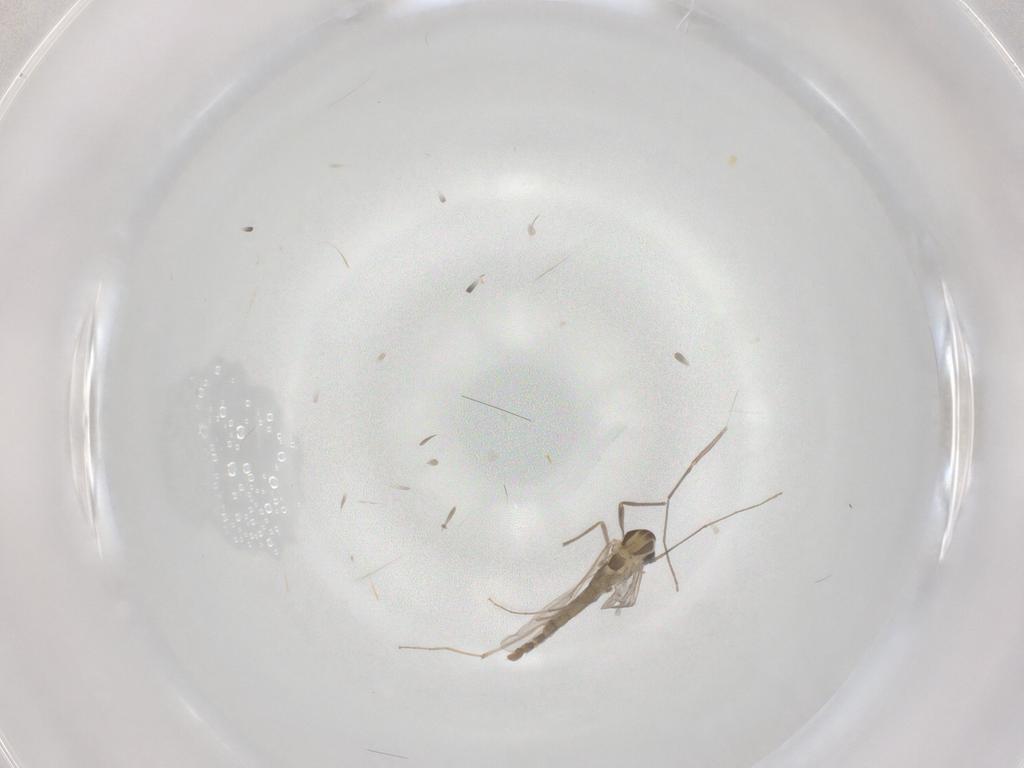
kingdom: Animalia
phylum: Arthropoda
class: Insecta
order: Diptera
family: Chironomidae
